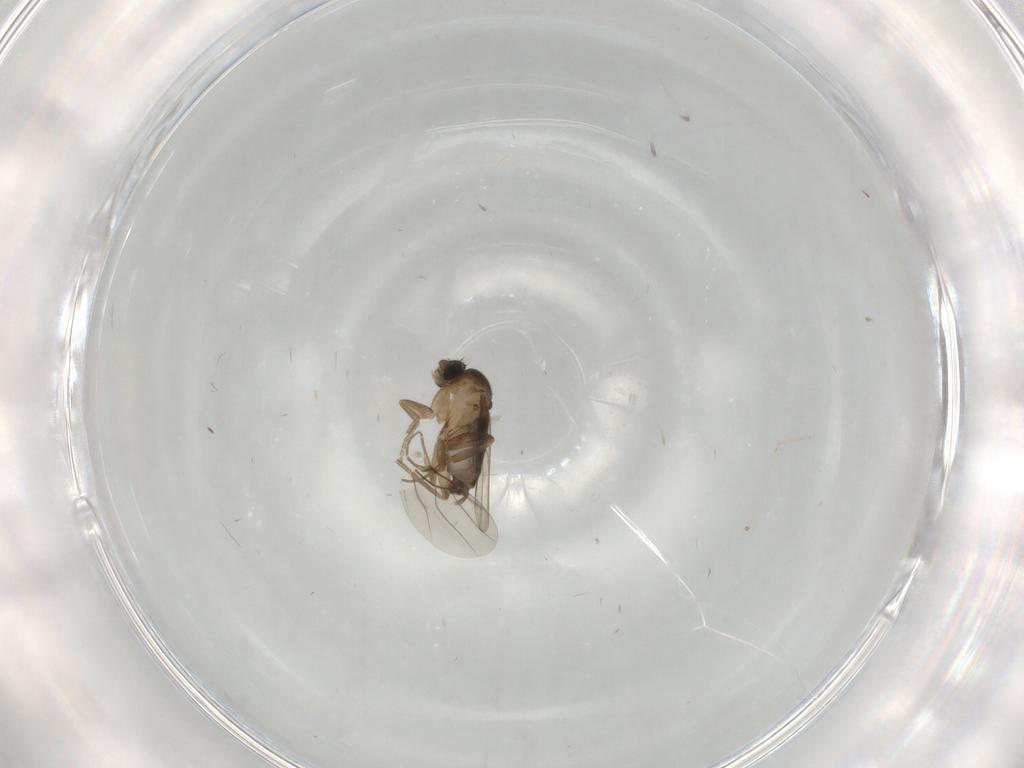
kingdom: Animalia
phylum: Arthropoda
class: Insecta
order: Diptera
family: Phoridae
